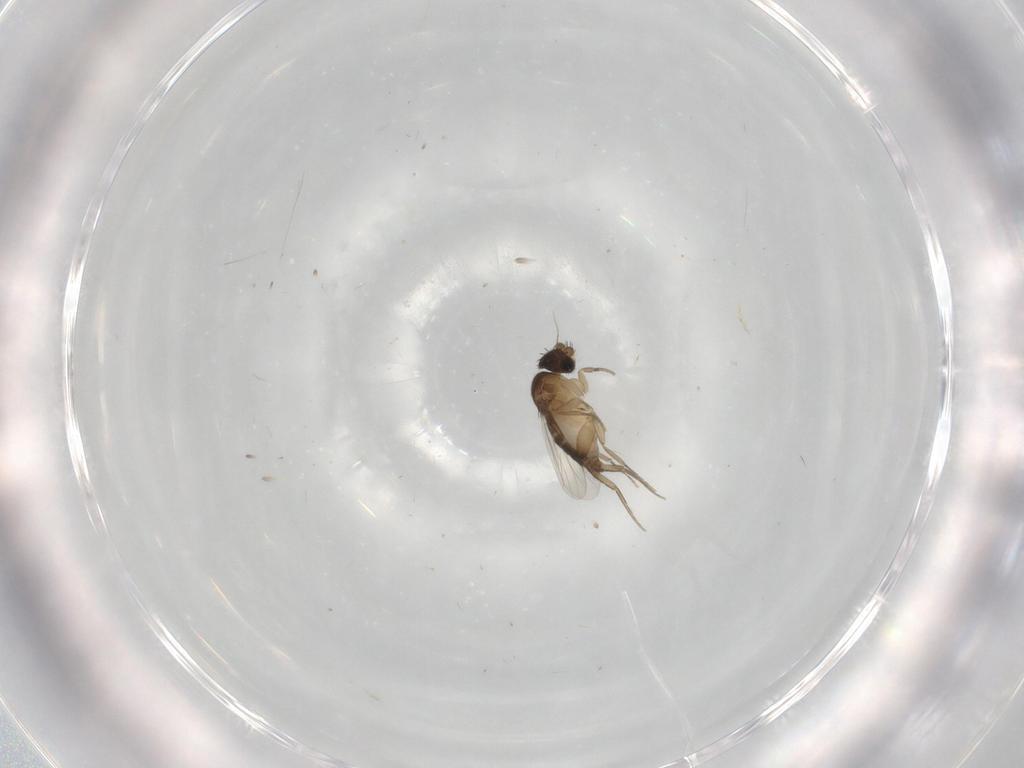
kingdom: Animalia
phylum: Arthropoda
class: Insecta
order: Diptera
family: Phoridae
